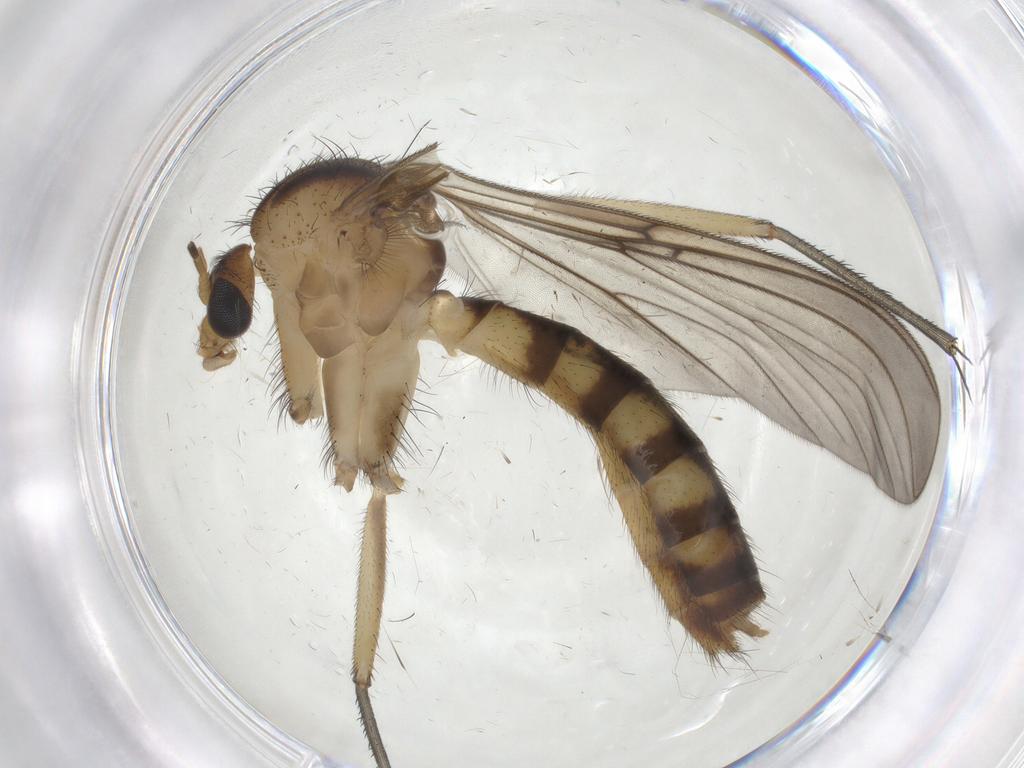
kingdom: Animalia
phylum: Arthropoda
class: Insecta
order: Diptera
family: Mycetophilidae
